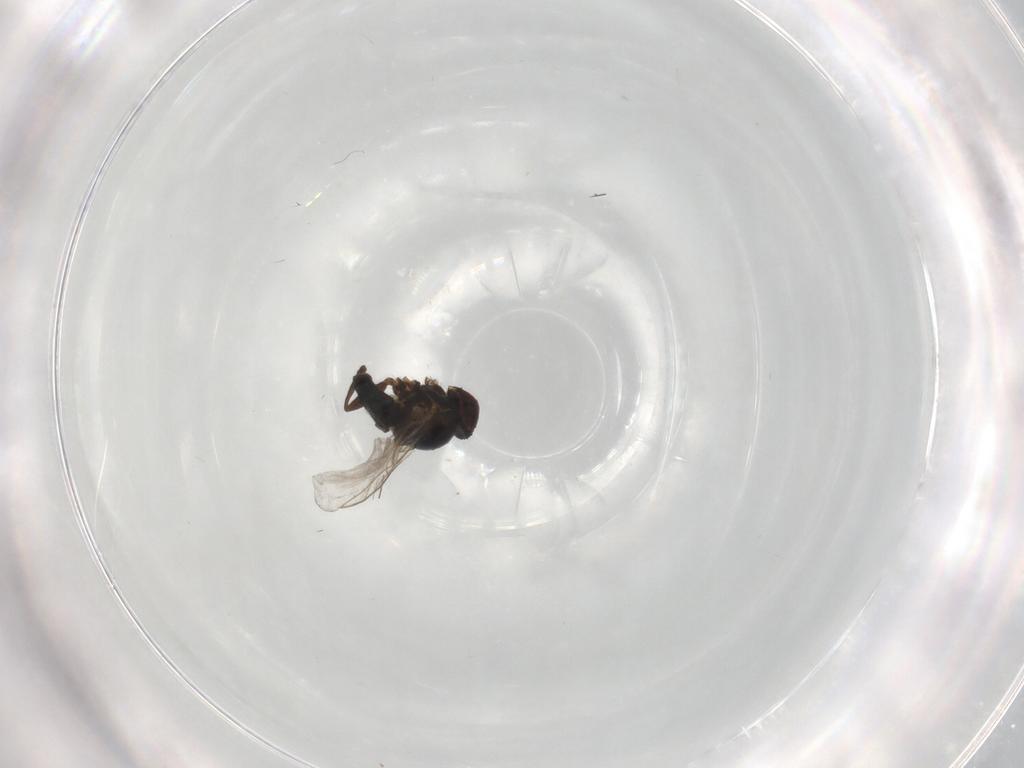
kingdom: Animalia
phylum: Arthropoda
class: Insecta
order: Diptera
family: Agromyzidae
